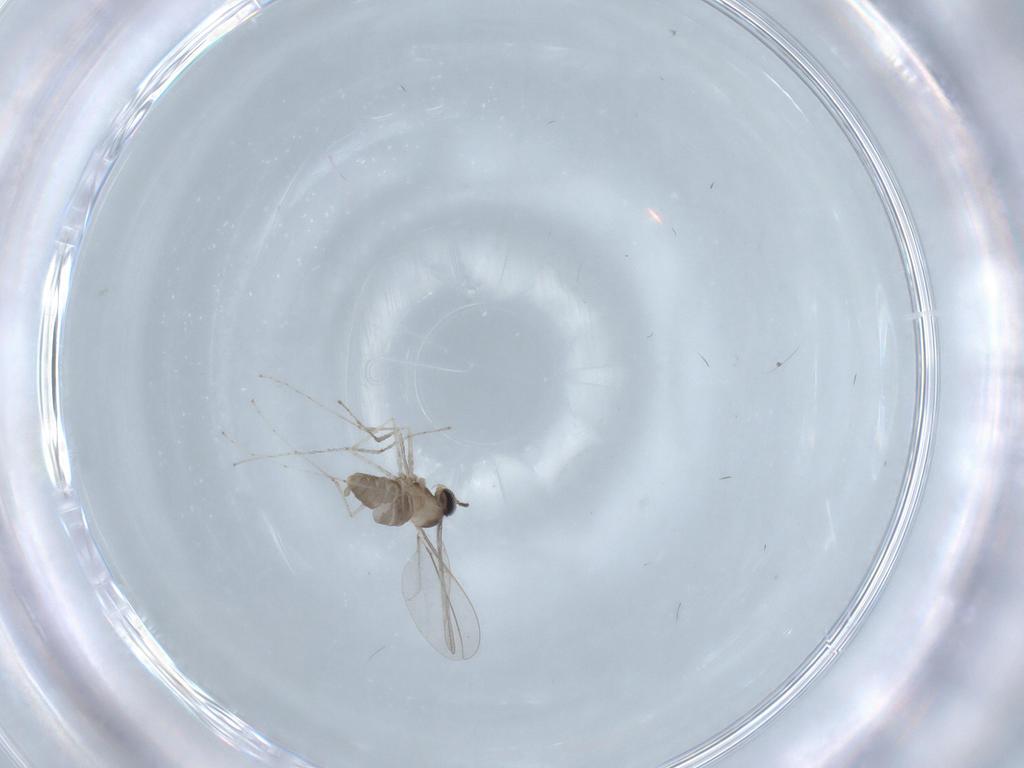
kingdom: Animalia
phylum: Arthropoda
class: Insecta
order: Diptera
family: Cecidomyiidae
